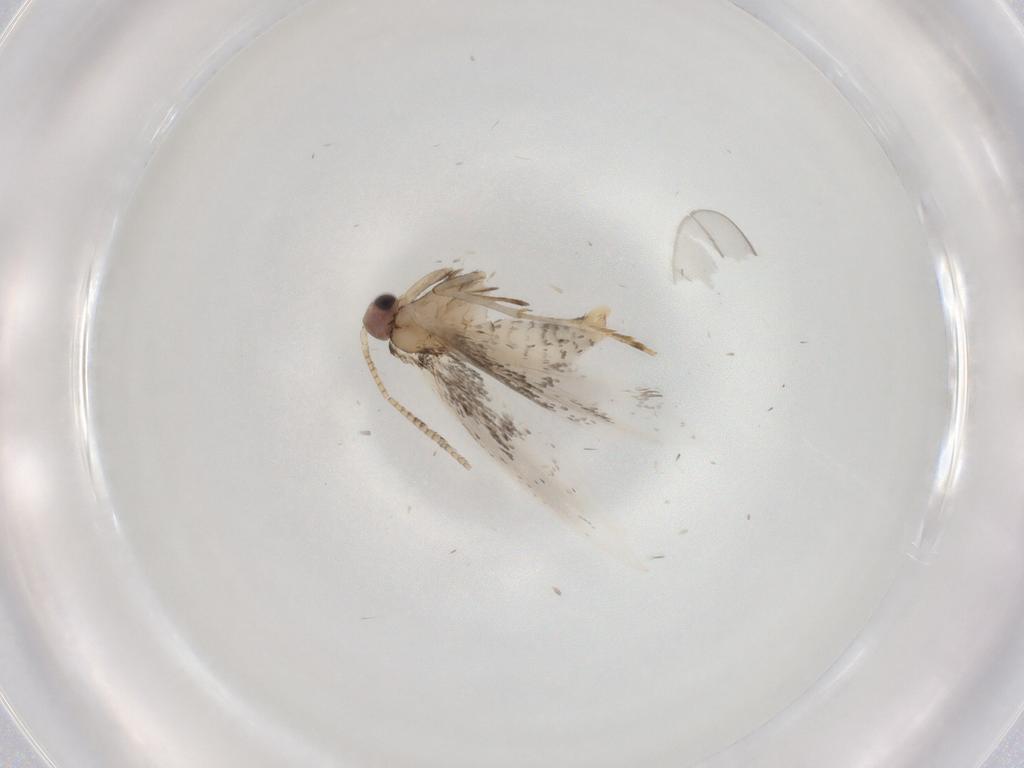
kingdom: Animalia
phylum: Arthropoda
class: Insecta
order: Lepidoptera
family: Tineidae
